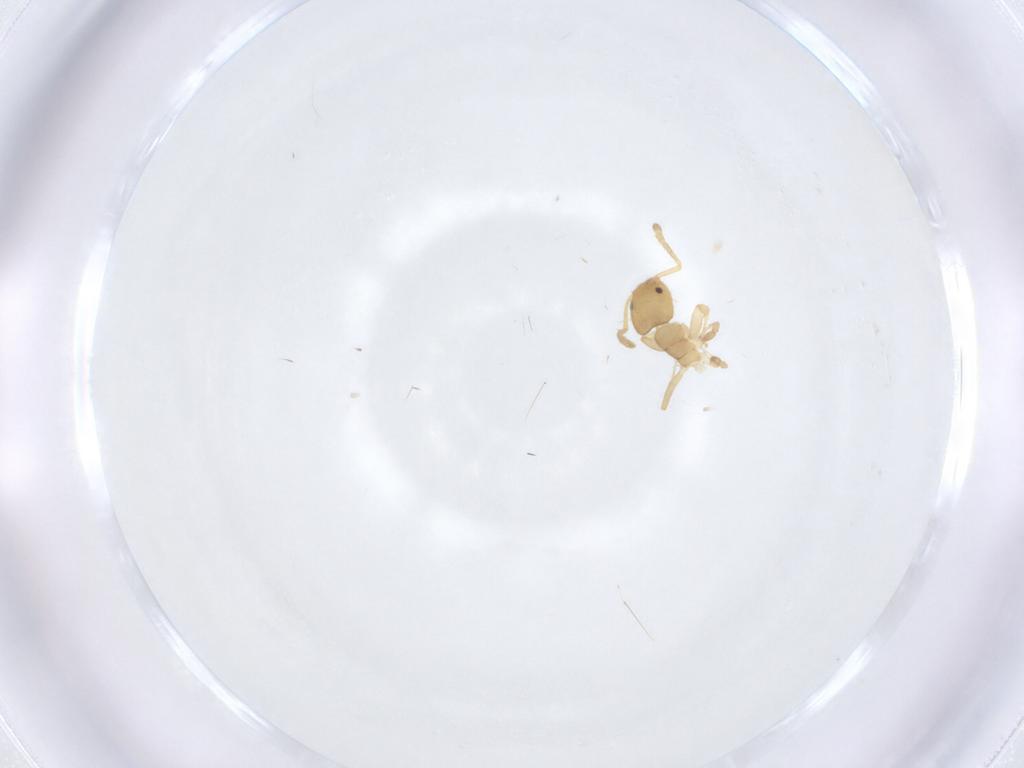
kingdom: Animalia
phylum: Arthropoda
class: Insecta
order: Hymenoptera
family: Formicidae
